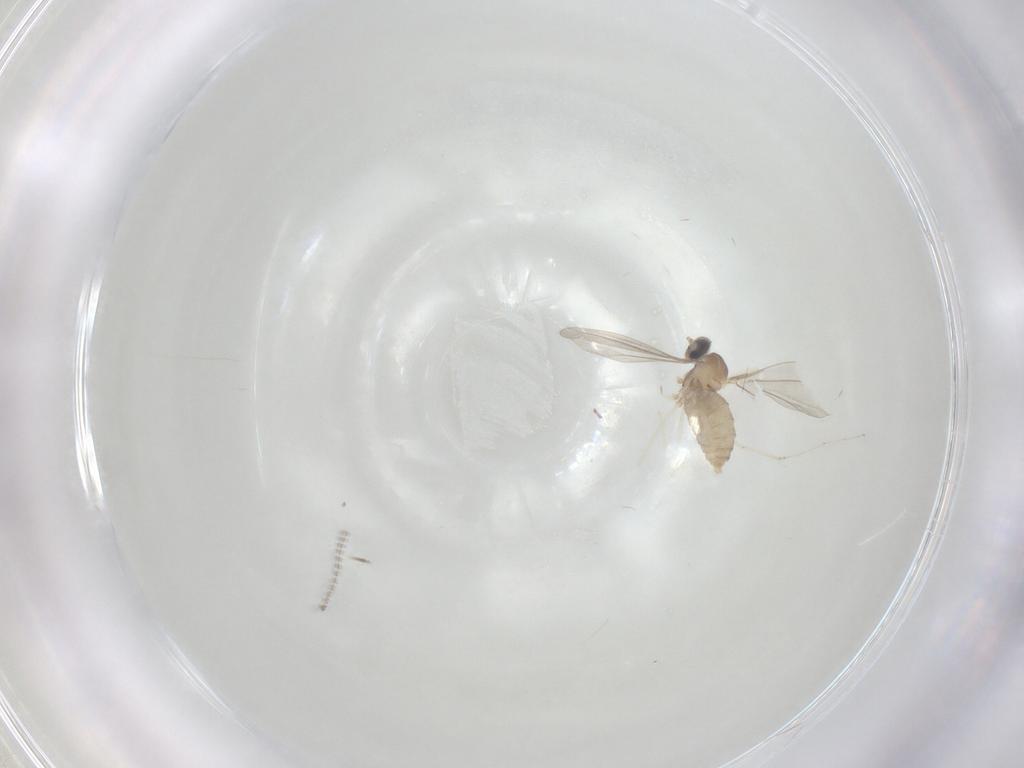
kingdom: Animalia
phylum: Arthropoda
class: Insecta
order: Diptera
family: Cecidomyiidae
